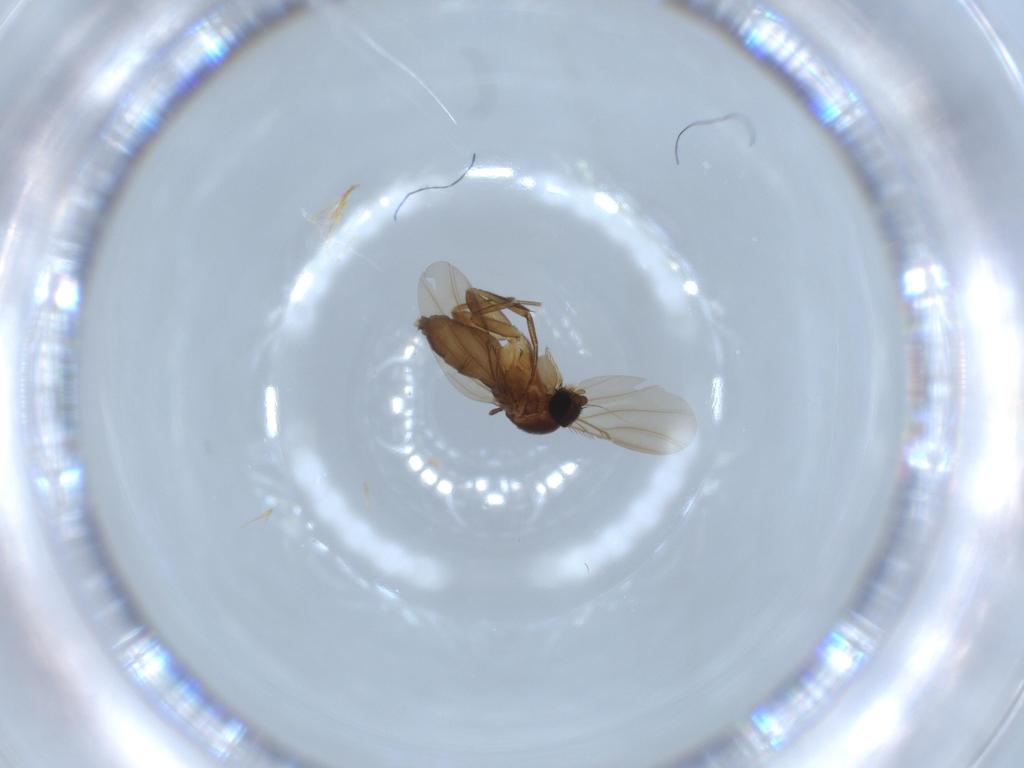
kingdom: Animalia
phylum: Arthropoda
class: Insecta
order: Diptera
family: Phoridae
